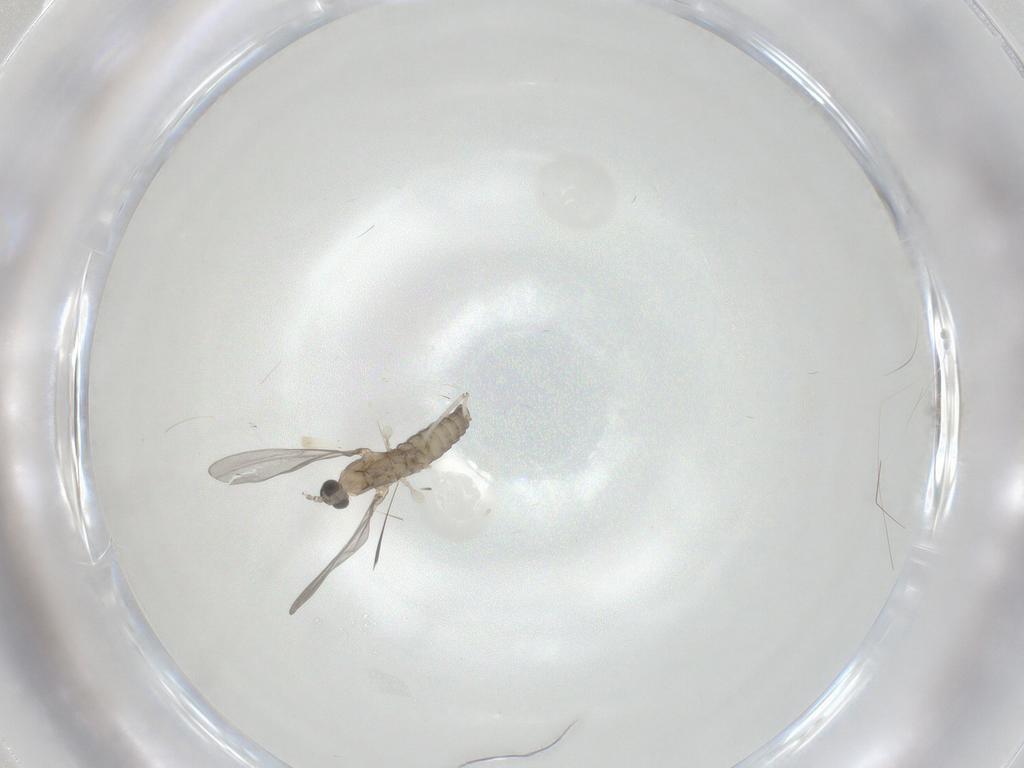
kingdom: Animalia
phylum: Arthropoda
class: Insecta
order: Diptera
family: Cecidomyiidae
